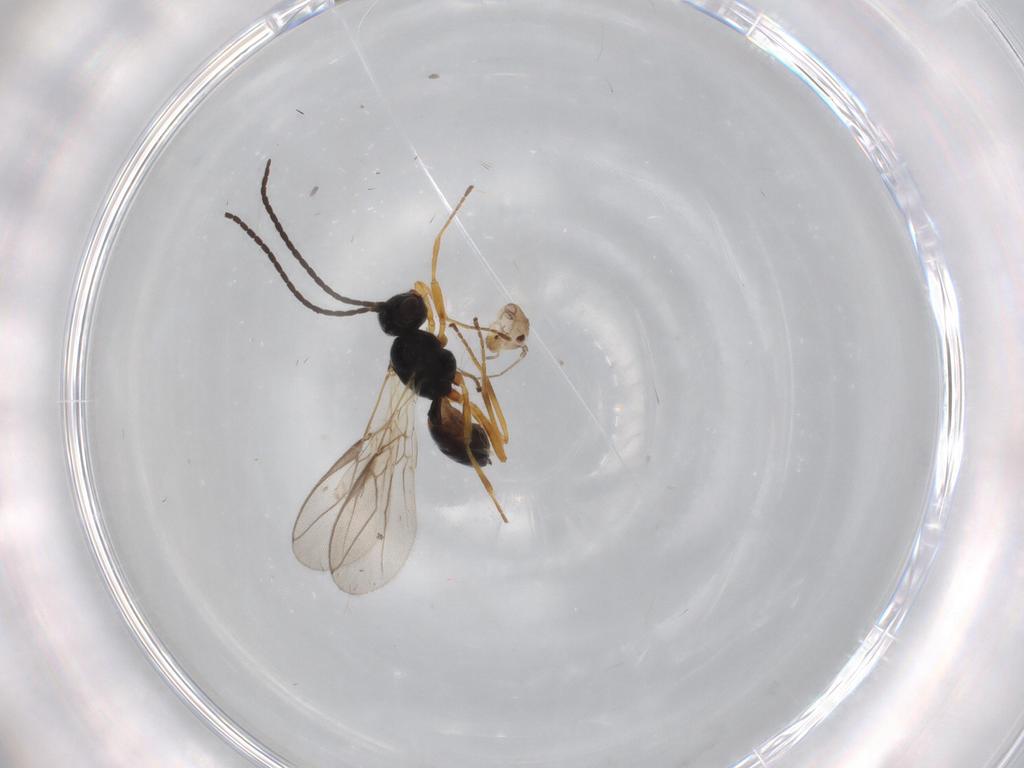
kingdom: Animalia
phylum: Arthropoda
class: Insecta
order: Hymenoptera
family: Braconidae
